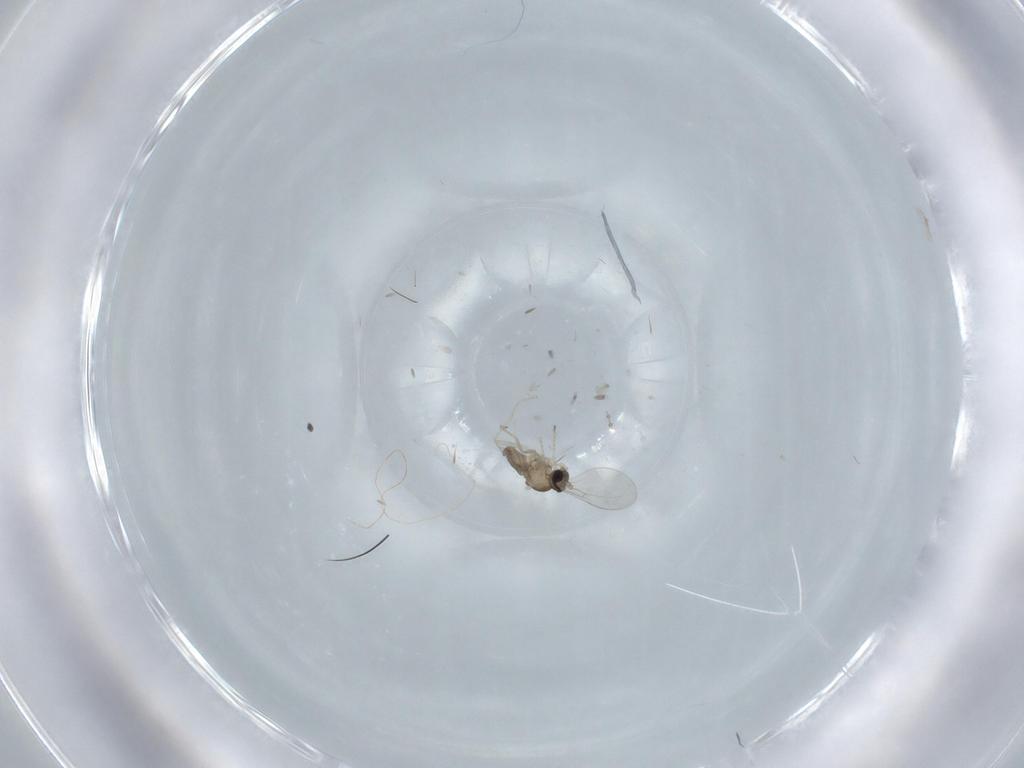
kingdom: Animalia
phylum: Arthropoda
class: Insecta
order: Diptera
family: Cecidomyiidae
